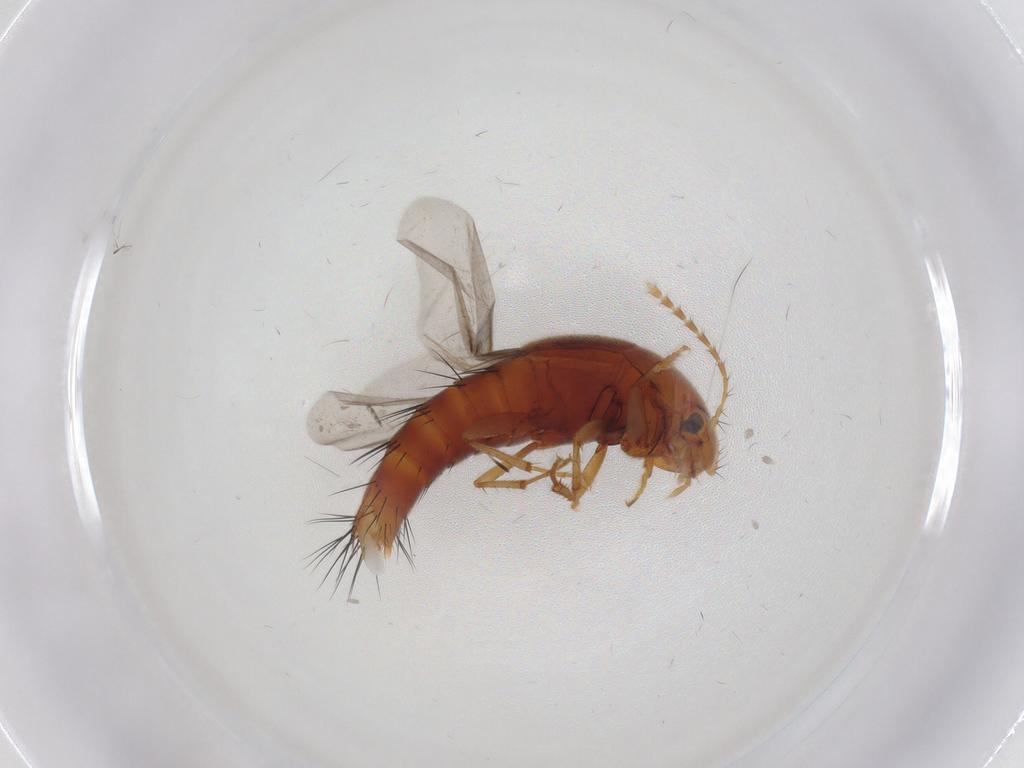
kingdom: Animalia
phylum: Arthropoda
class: Insecta
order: Coleoptera
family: Staphylinidae
